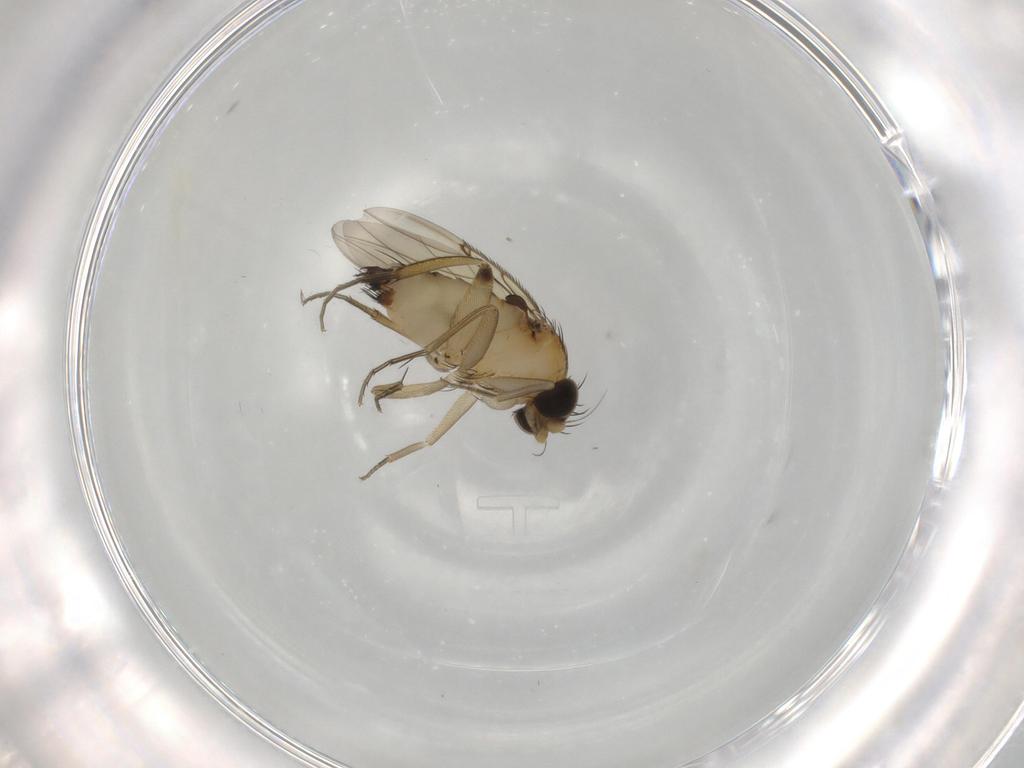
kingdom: Animalia
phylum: Arthropoda
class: Insecta
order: Diptera
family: Phoridae
